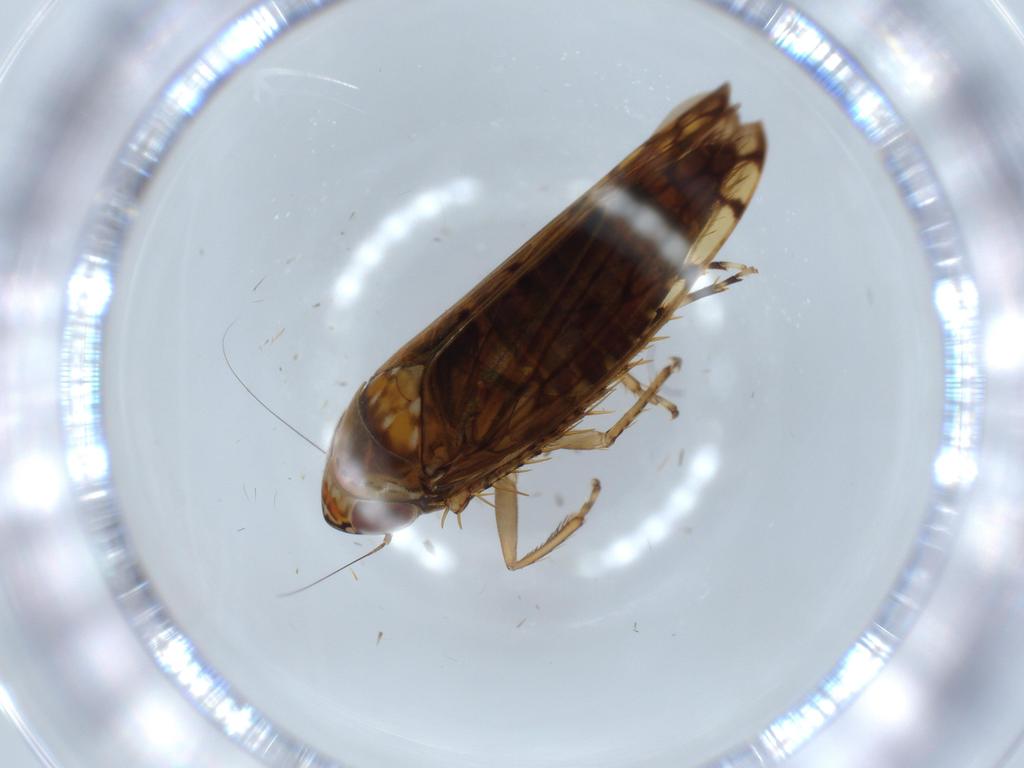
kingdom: Animalia
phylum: Arthropoda
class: Insecta
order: Hemiptera
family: Cicadellidae
